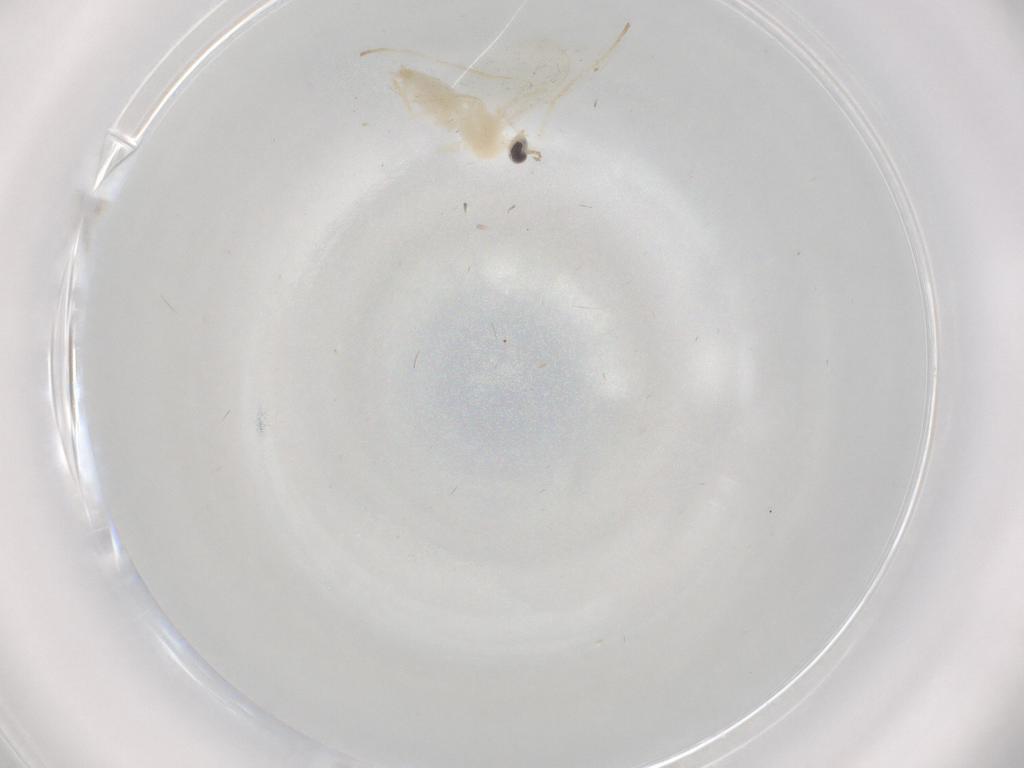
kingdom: Animalia
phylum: Arthropoda
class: Insecta
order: Diptera
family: Cecidomyiidae
